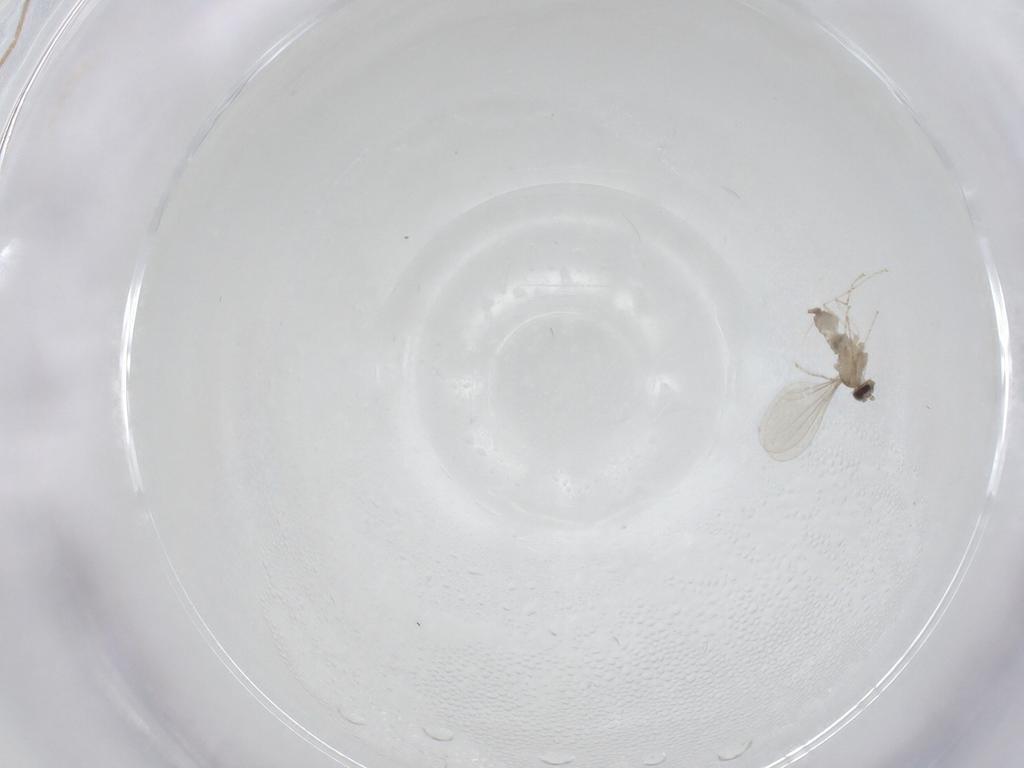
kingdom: Animalia
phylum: Arthropoda
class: Insecta
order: Diptera
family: Cecidomyiidae
